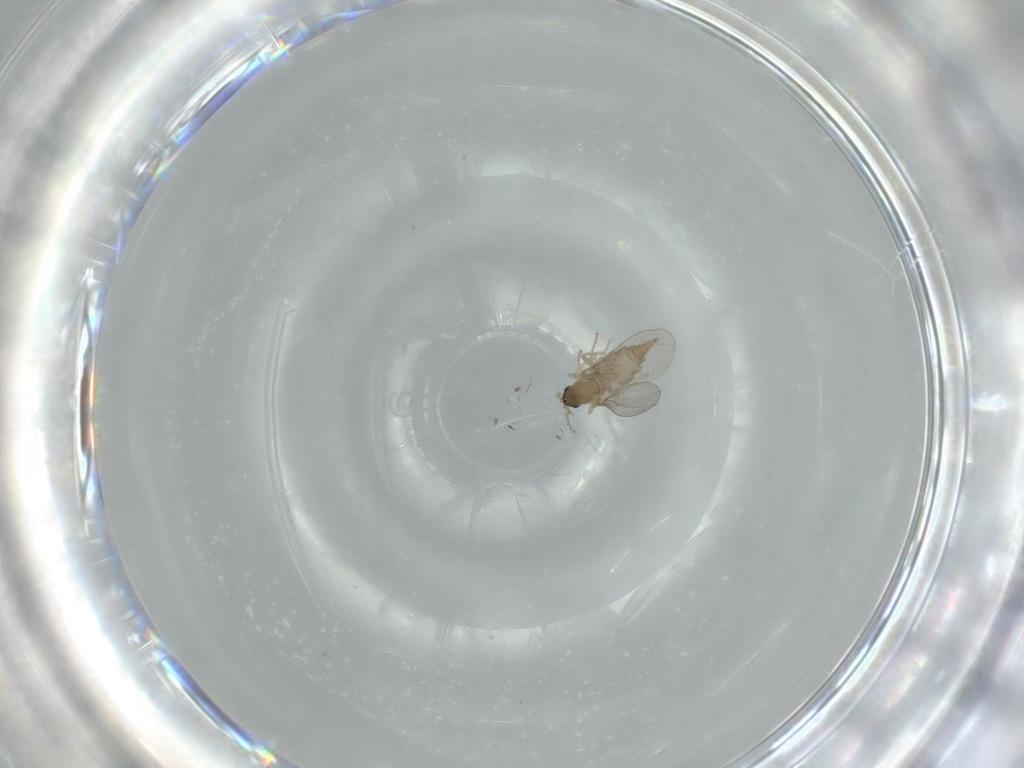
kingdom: Animalia
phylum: Arthropoda
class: Insecta
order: Diptera
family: Cecidomyiidae
